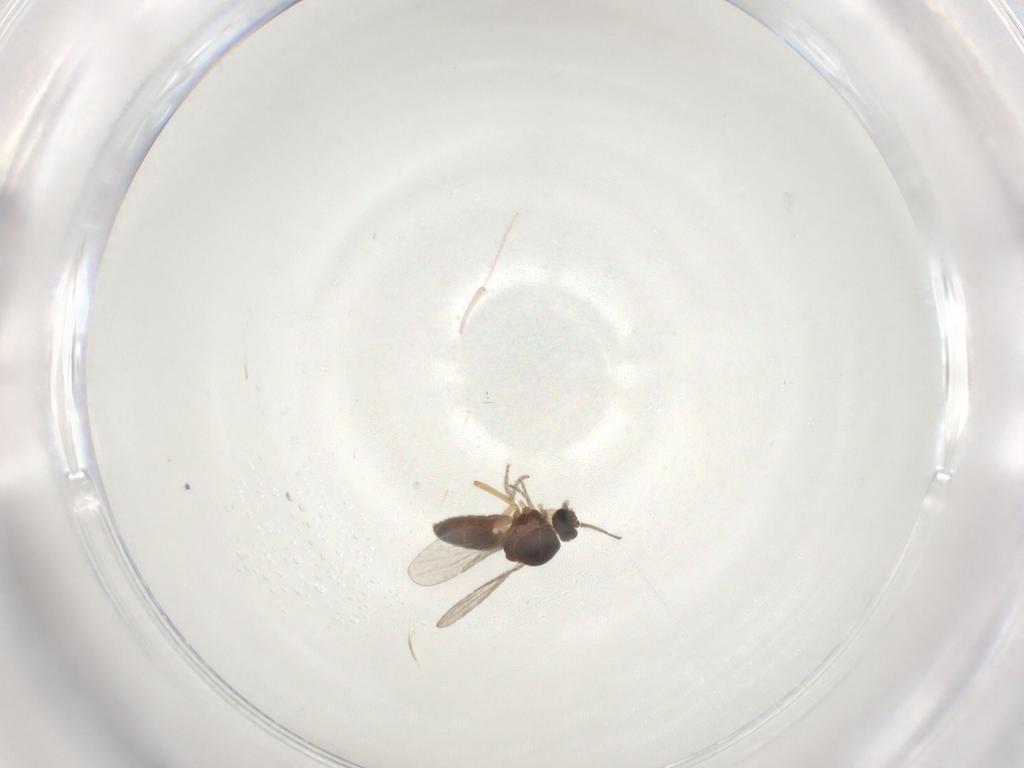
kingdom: Animalia
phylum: Arthropoda
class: Insecta
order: Diptera
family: Ceratopogonidae
